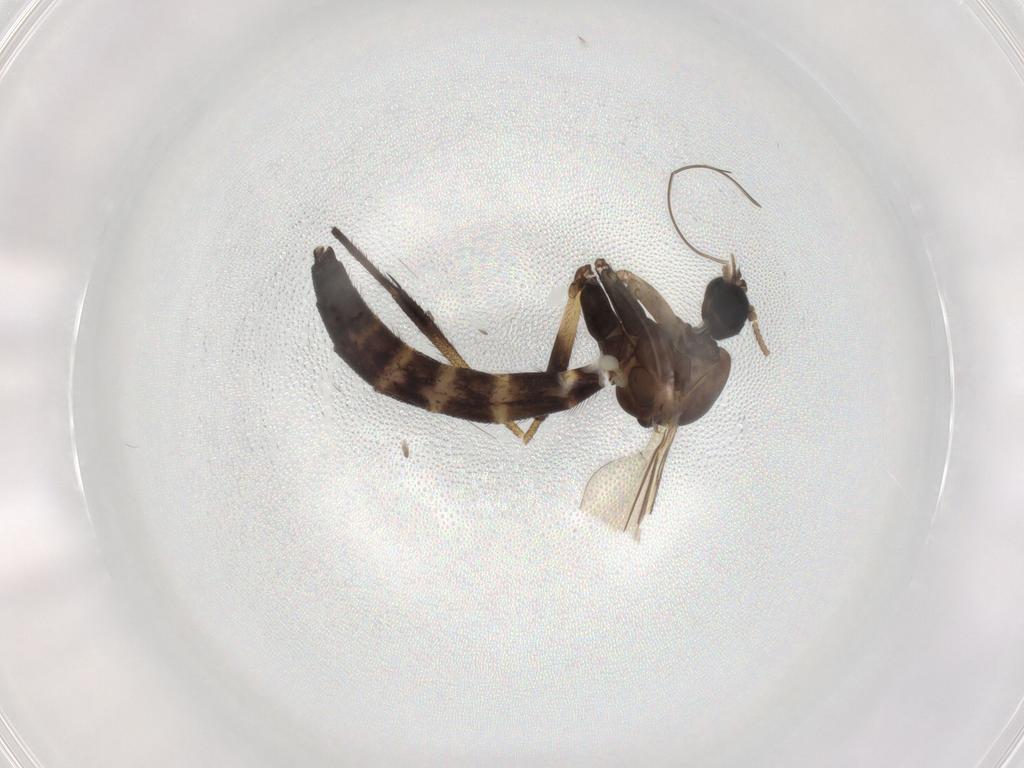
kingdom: Animalia
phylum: Arthropoda
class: Insecta
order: Diptera
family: Keroplatidae
